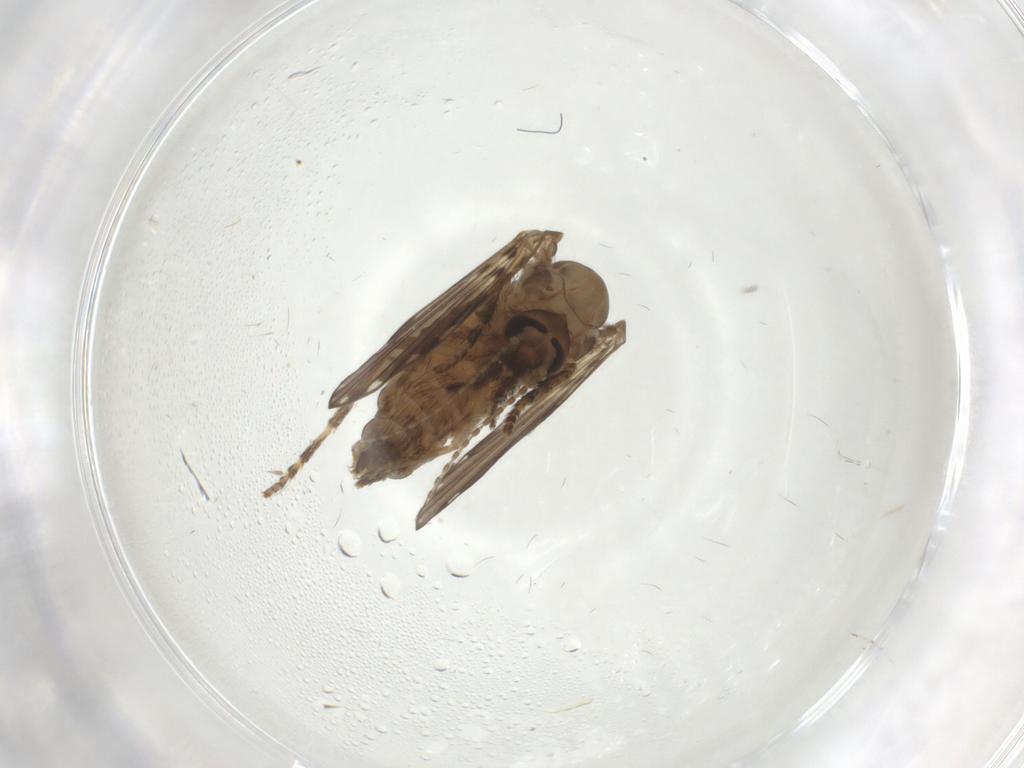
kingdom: Animalia
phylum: Arthropoda
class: Insecta
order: Diptera
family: Psychodidae
